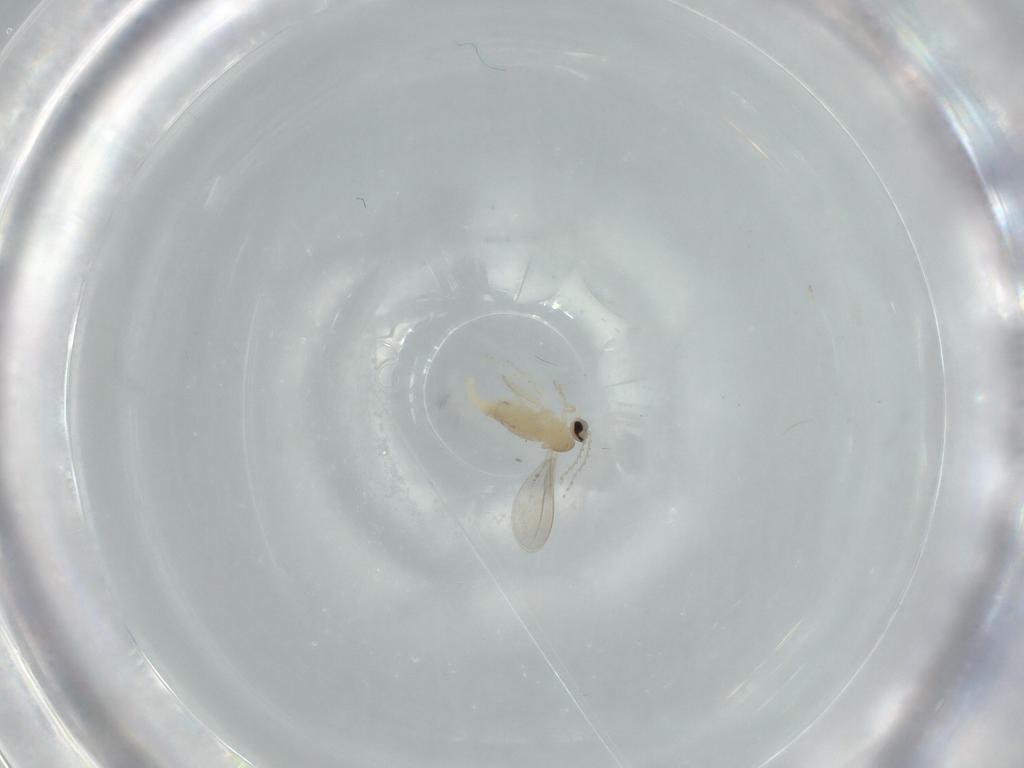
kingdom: Animalia
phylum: Arthropoda
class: Insecta
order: Diptera
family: Cecidomyiidae
